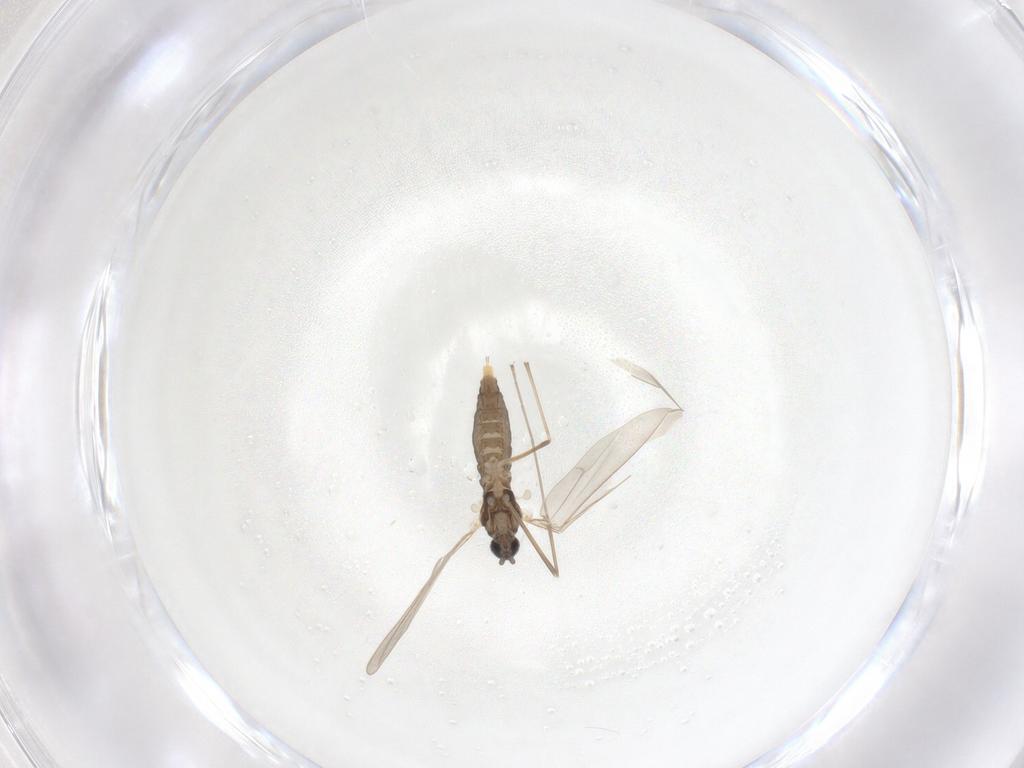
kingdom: Animalia
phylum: Arthropoda
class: Insecta
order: Diptera
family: Cecidomyiidae
